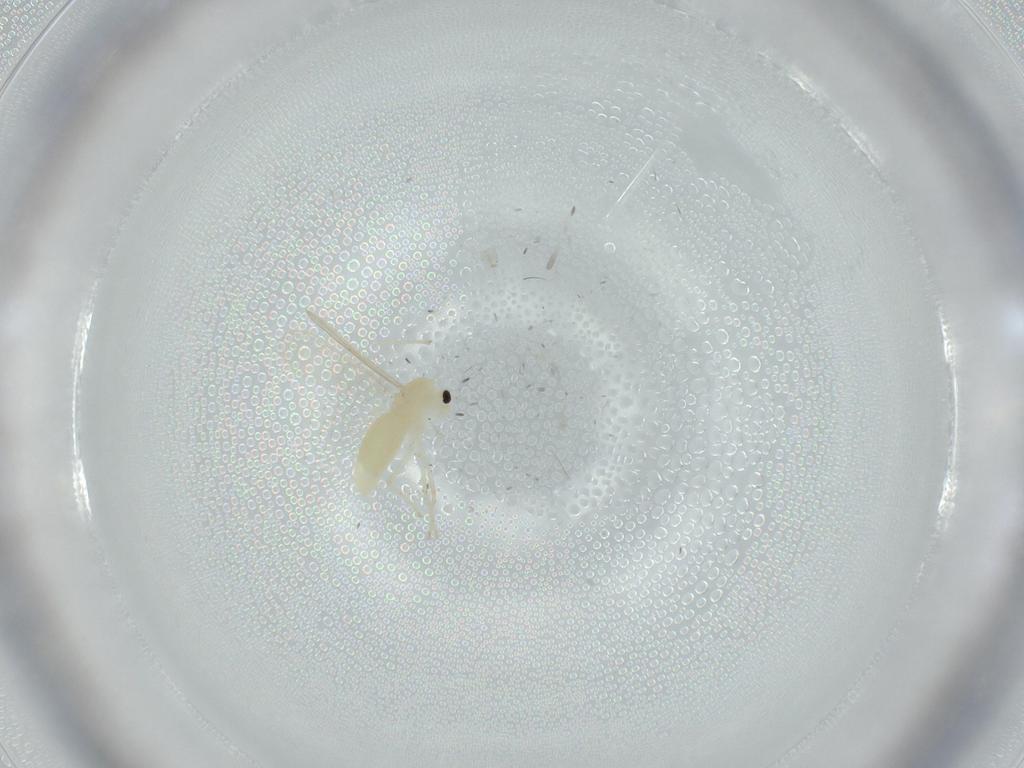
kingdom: Animalia
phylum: Arthropoda
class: Insecta
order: Diptera
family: Chironomidae
